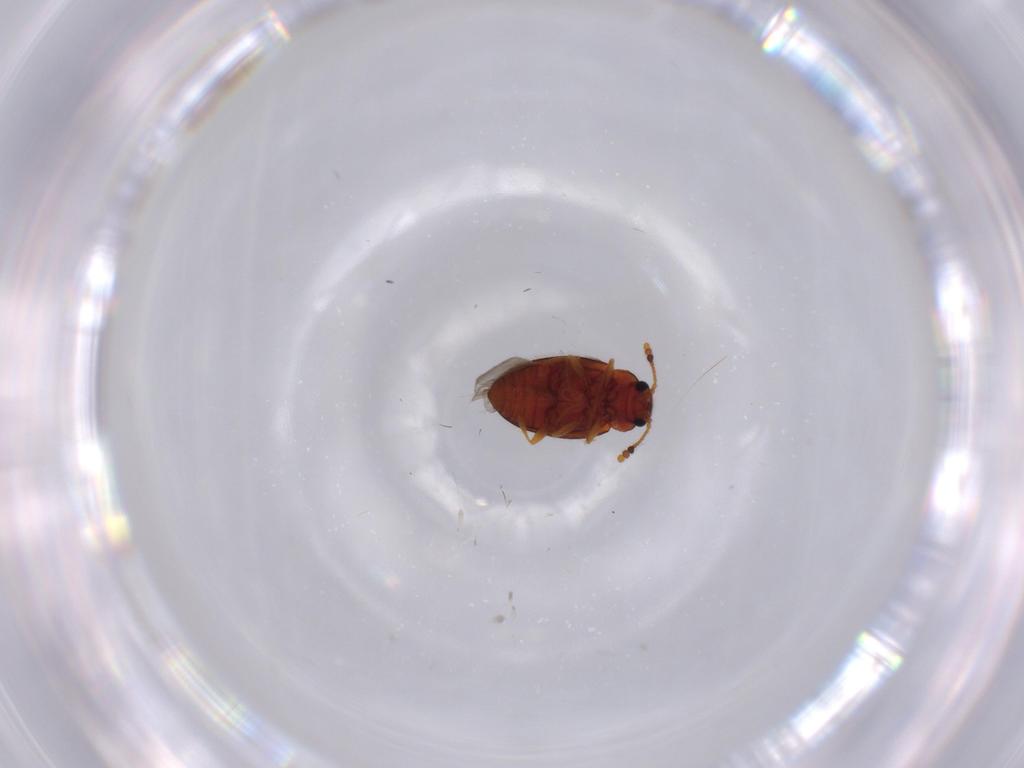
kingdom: Animalia
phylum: Arthropoda
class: Insecta
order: Coleoptera
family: Erotylidae
